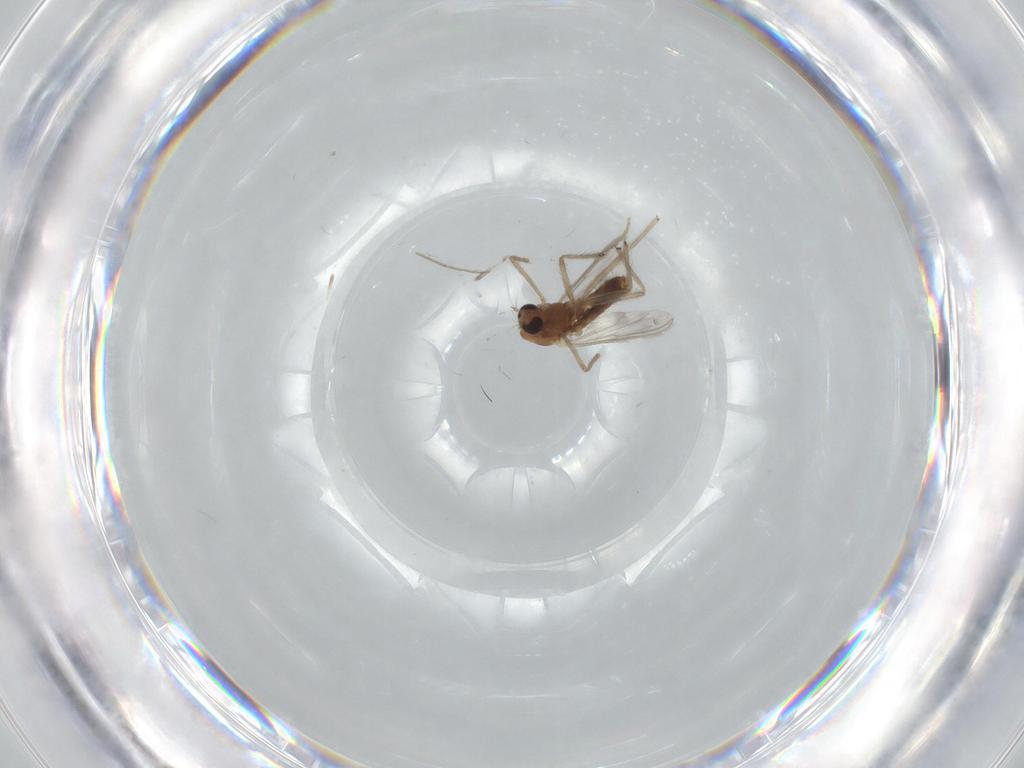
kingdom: Animalia
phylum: Arthropoda
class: Insecta
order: Diptera
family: Chironomidae
